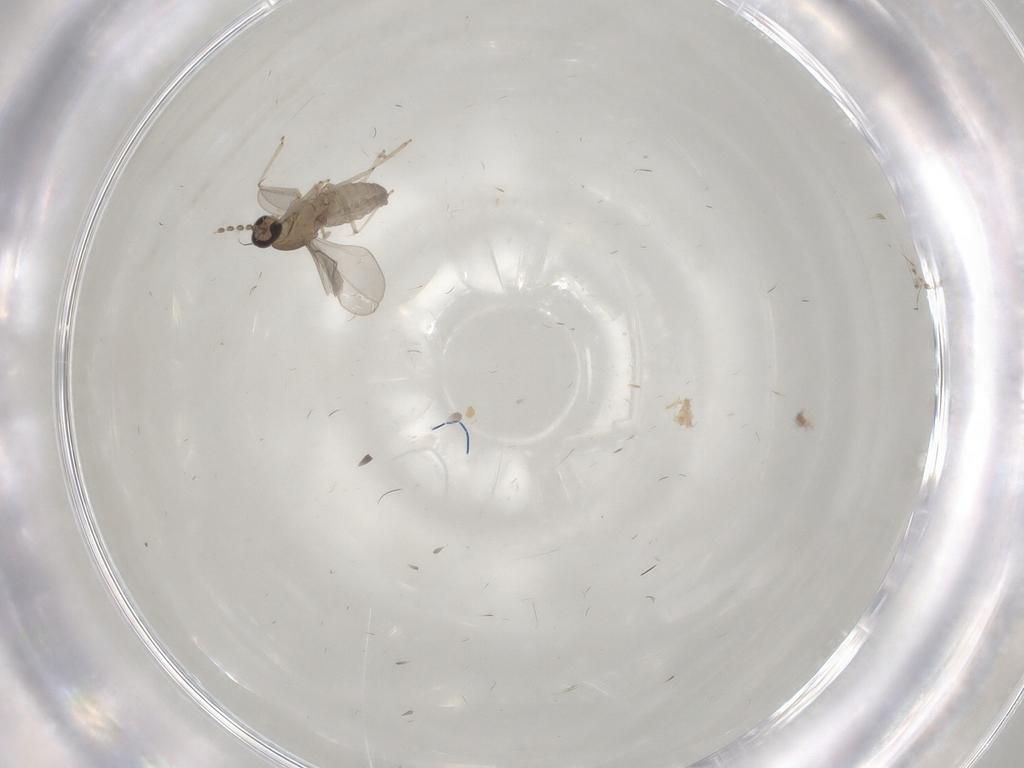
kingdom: Animalia
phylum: Arthropoda
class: Insecta
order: Diptera
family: Chironomidae
